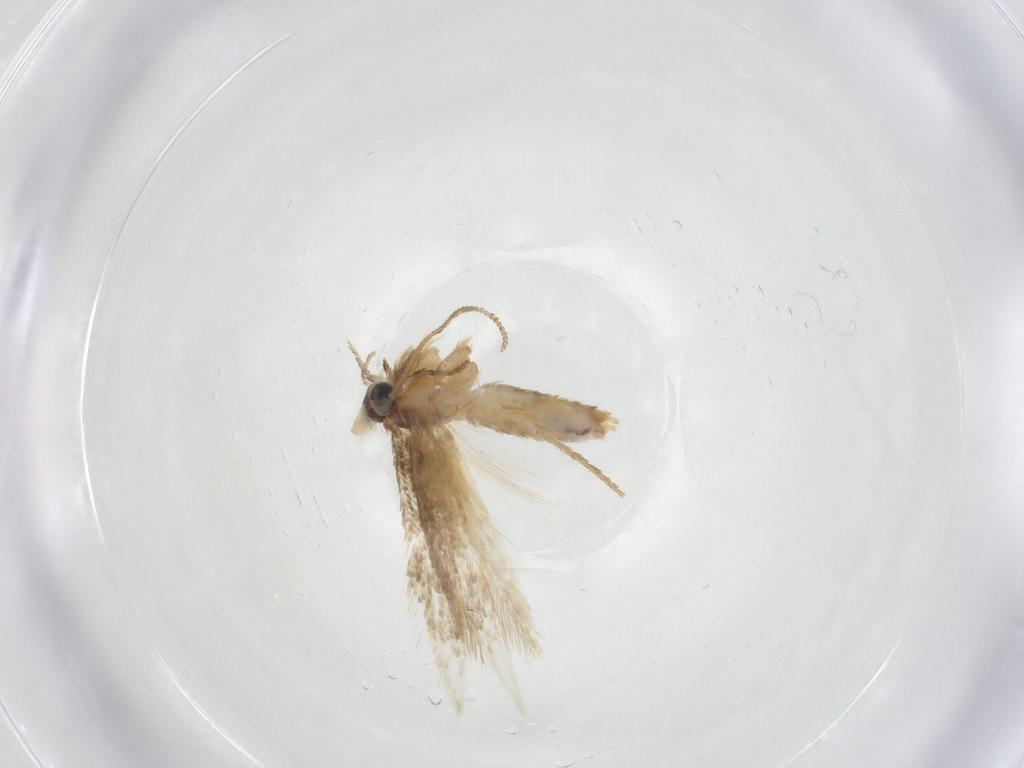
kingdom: Animalia
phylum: Arthropoda
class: Insecta
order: Lepidoptera
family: Nepticulidae
